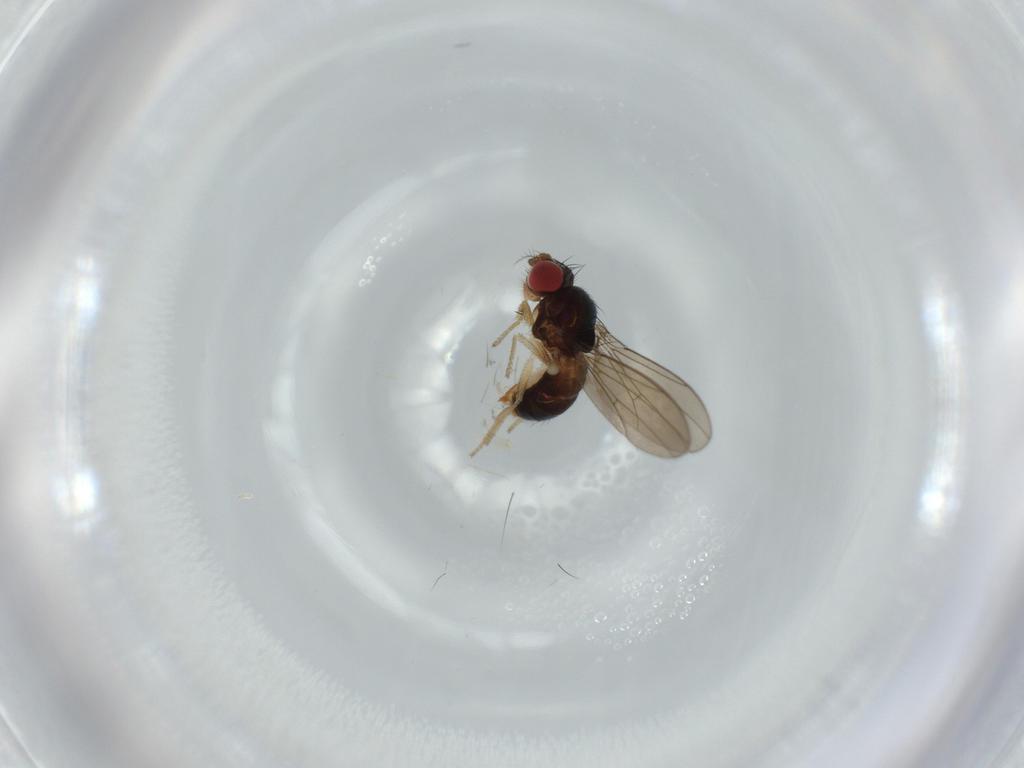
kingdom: Animalia
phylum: Arthropoda
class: Insecta
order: Diptera
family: Drosophilidae
